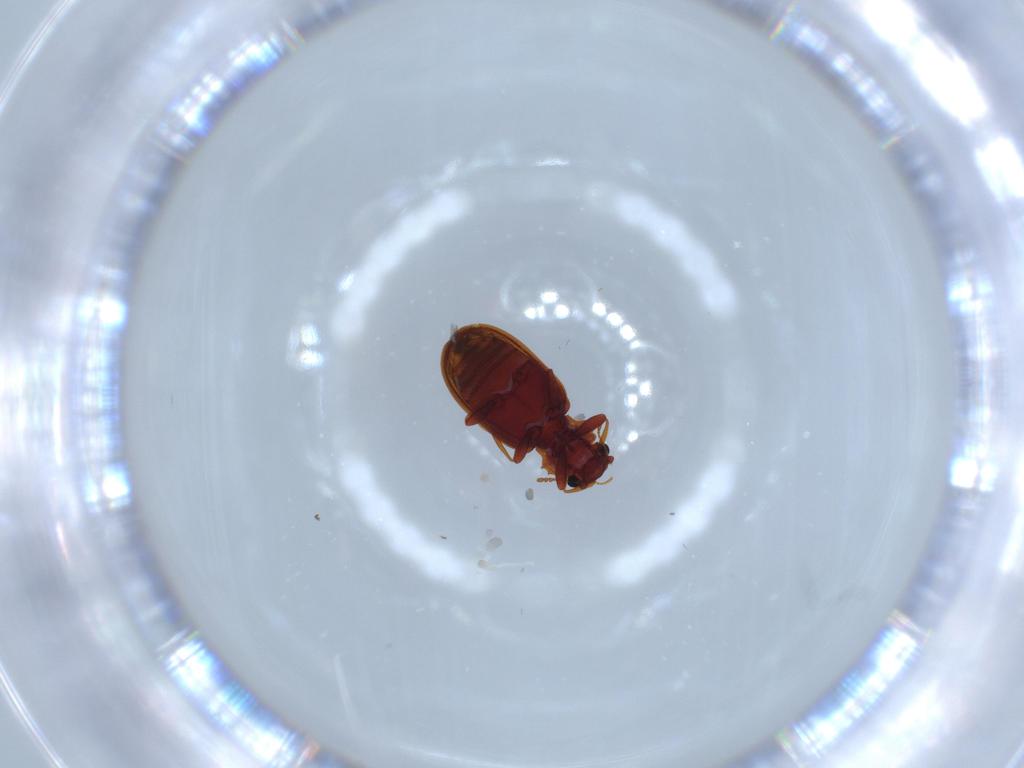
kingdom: Animalia
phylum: Arthropoda
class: Insecta
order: Coleoptera
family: Latridiidae
